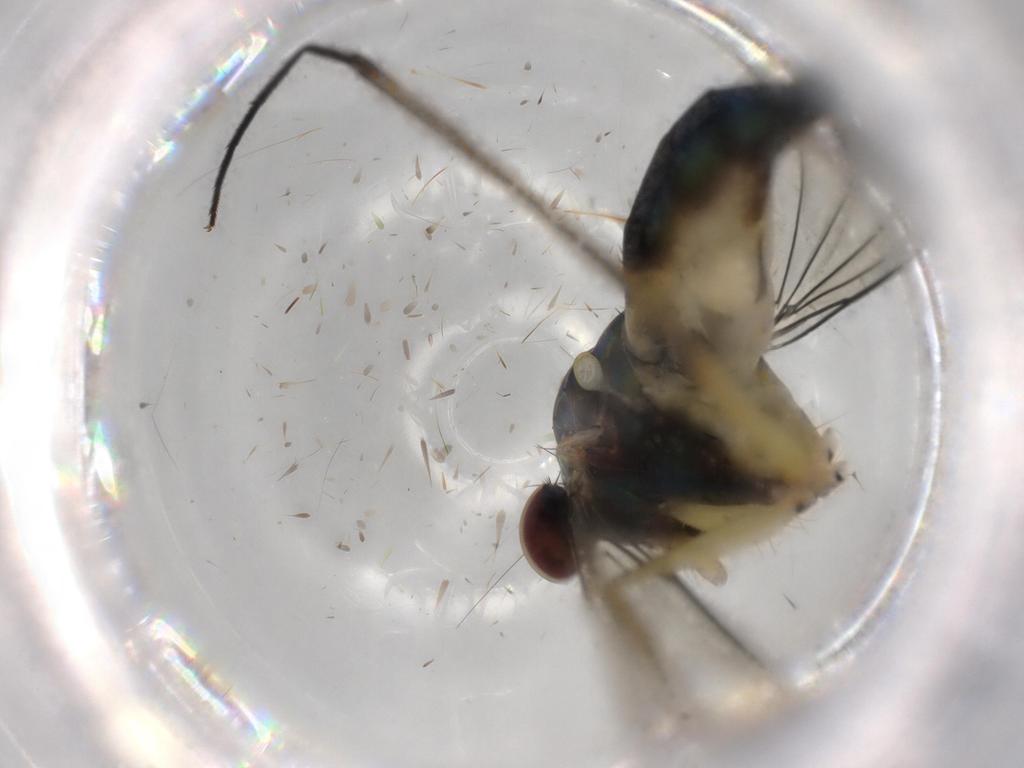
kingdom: Animalia
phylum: Arthropoda
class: Insecta
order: Diptera
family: Dolichopodidae
